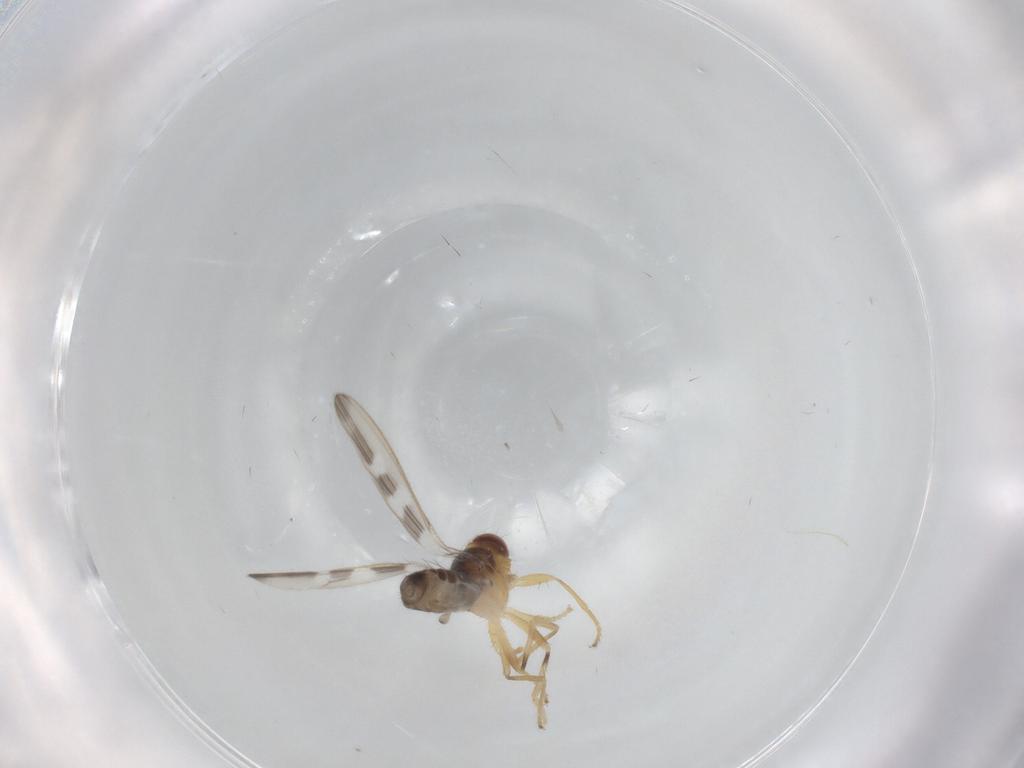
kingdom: Animalia
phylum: Arthropoda
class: Insecta
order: Diptera
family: Periscelididae
